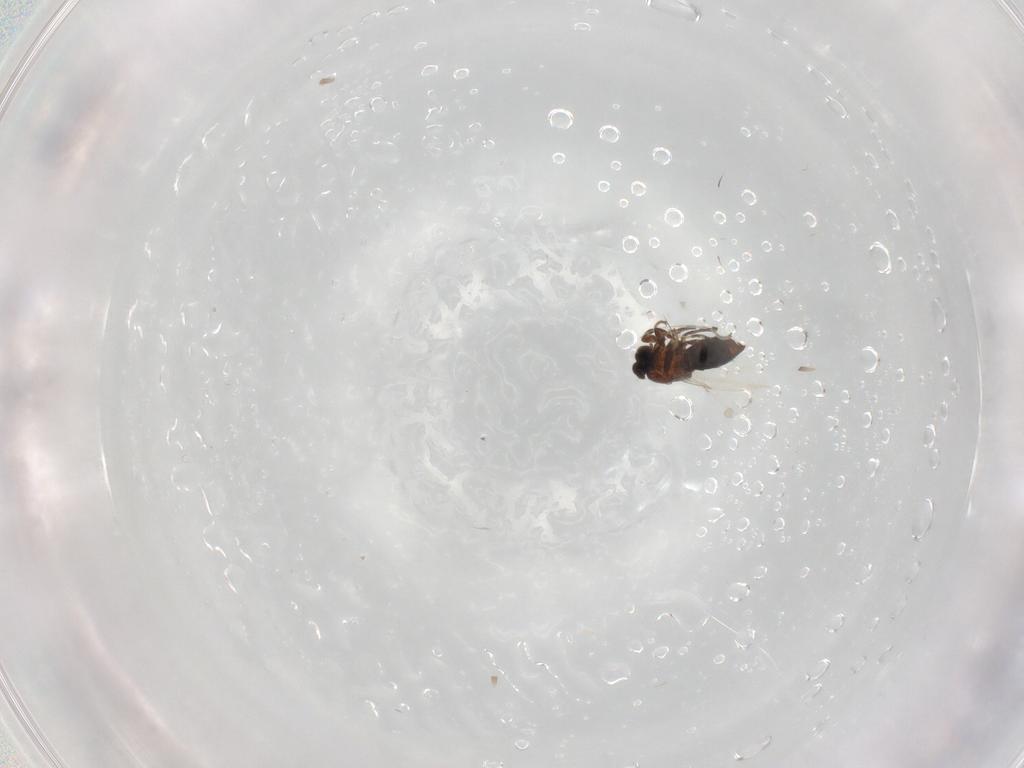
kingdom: Animalia
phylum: Arthropoda
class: Insecta
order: Diptera
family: Scatopsidae
